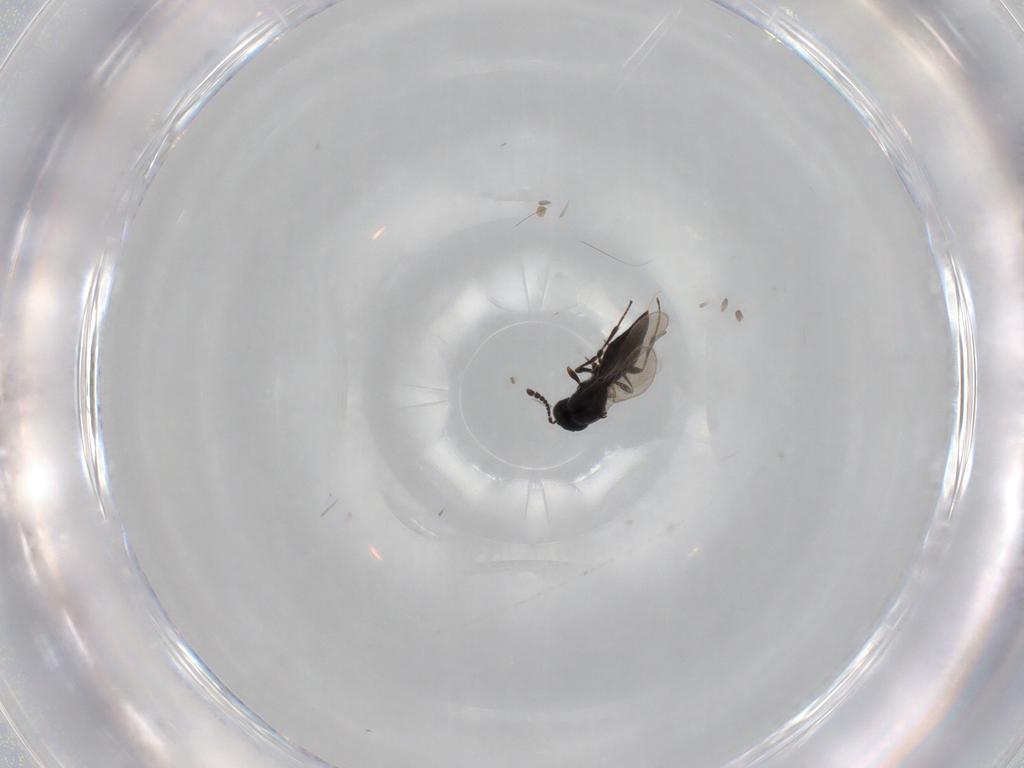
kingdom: Animalia
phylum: Arthropoda
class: Insecta
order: Hymenoptera
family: Platygastridae
